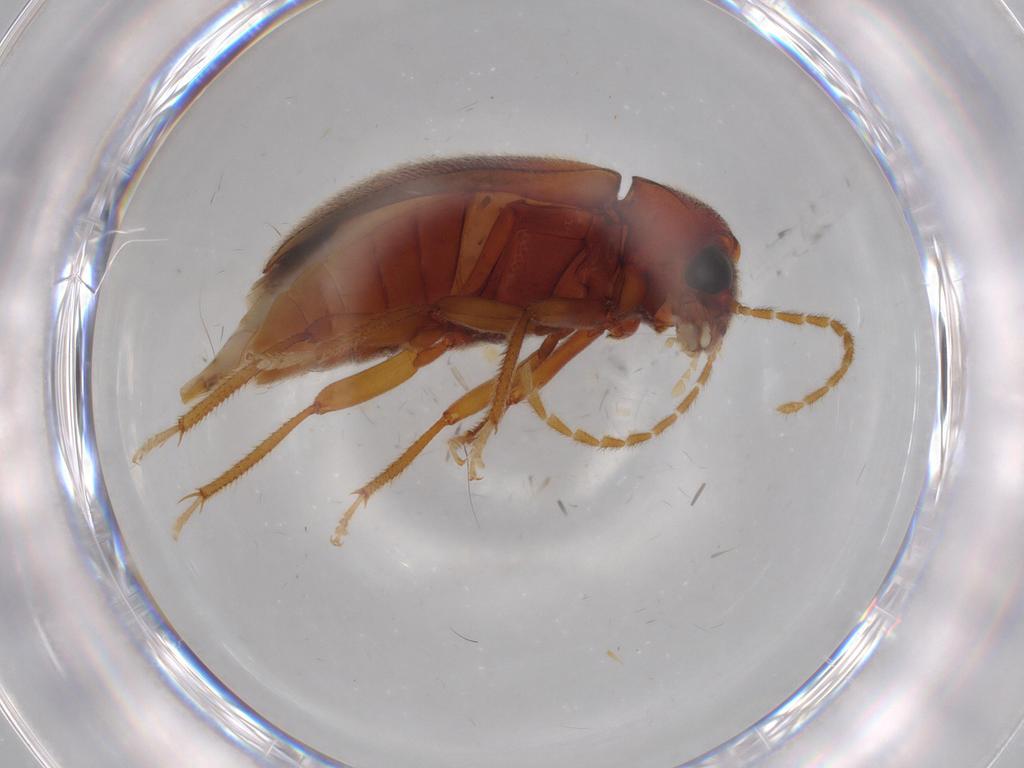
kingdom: Animalia
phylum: Arthropoda
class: Insecta
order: Coleoptera
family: Ptilodactylidae
